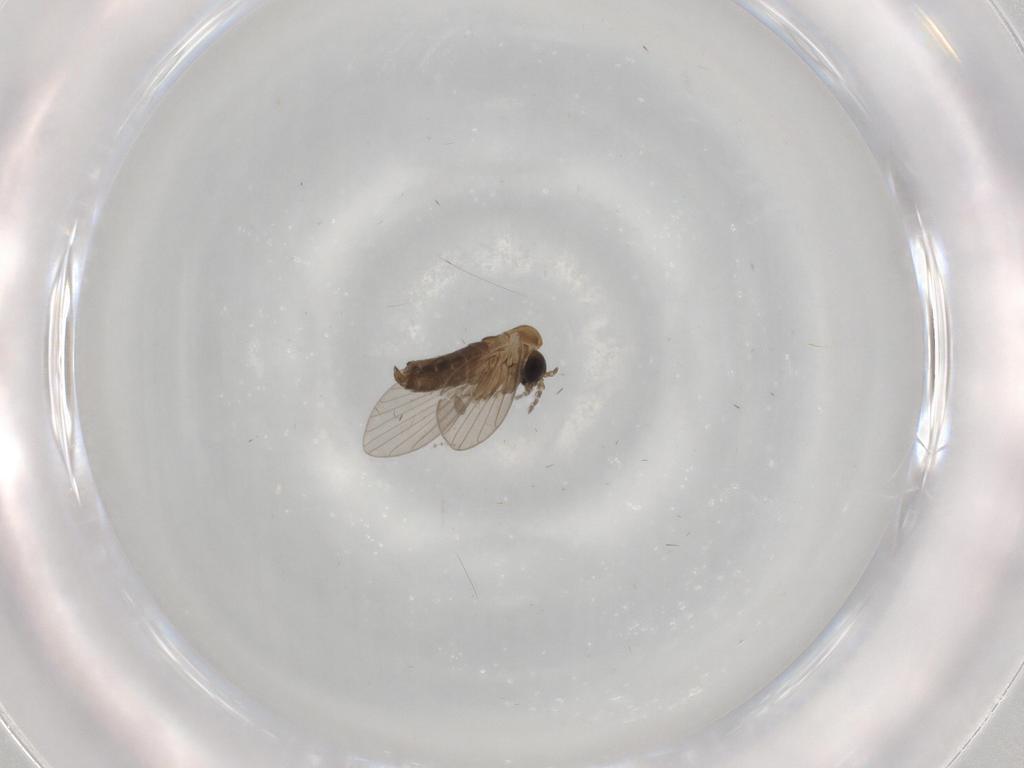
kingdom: Animalia
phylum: Arthropoda
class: Insecta
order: Diptera
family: Psychodidae
